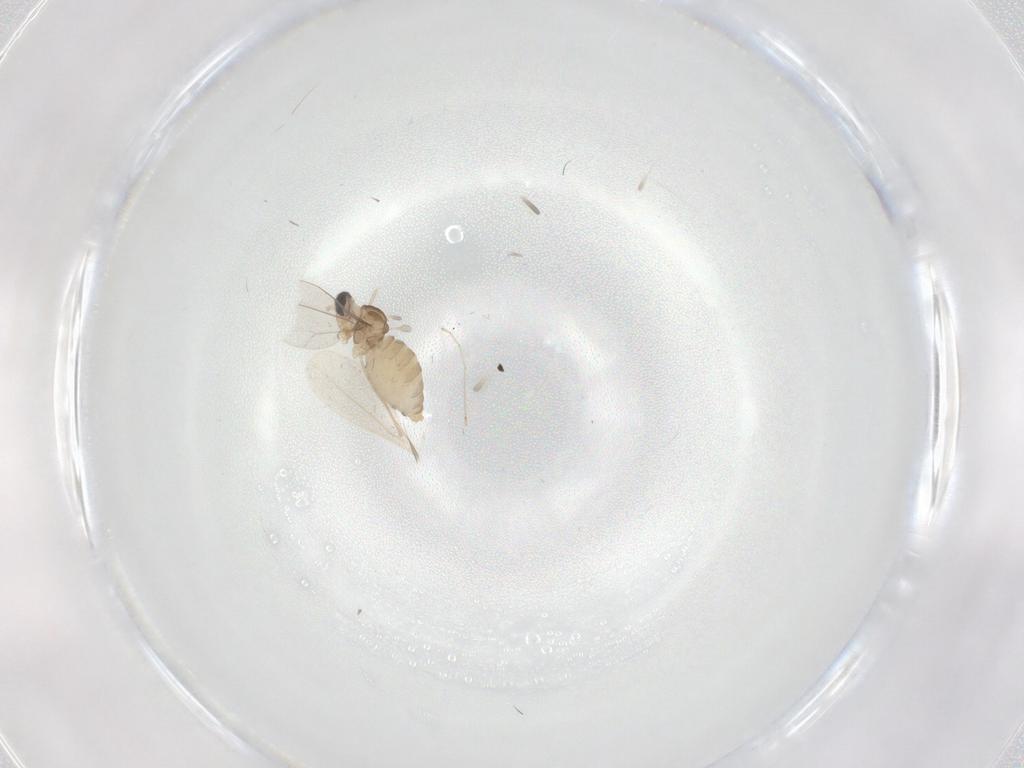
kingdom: Animalia
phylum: Arthropoda
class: Insecta
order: Diptera
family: Cecidomyiidae
